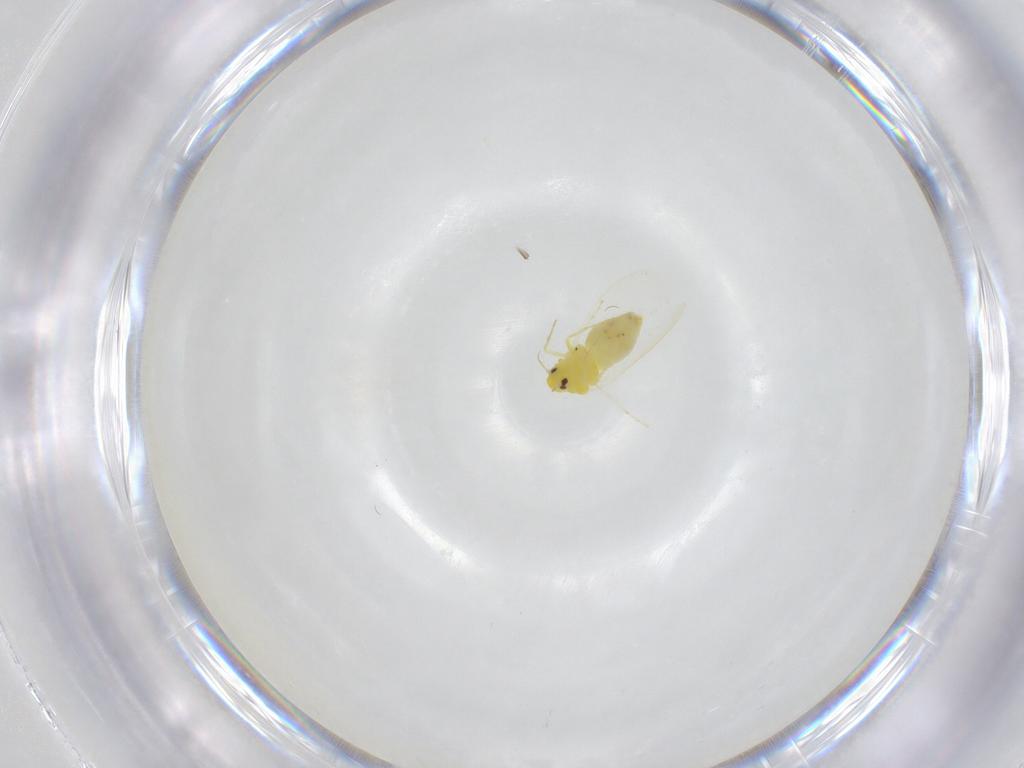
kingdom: Animalia
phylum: Arthropoda
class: Insecta
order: Hemiptera
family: Aleyrodidae
